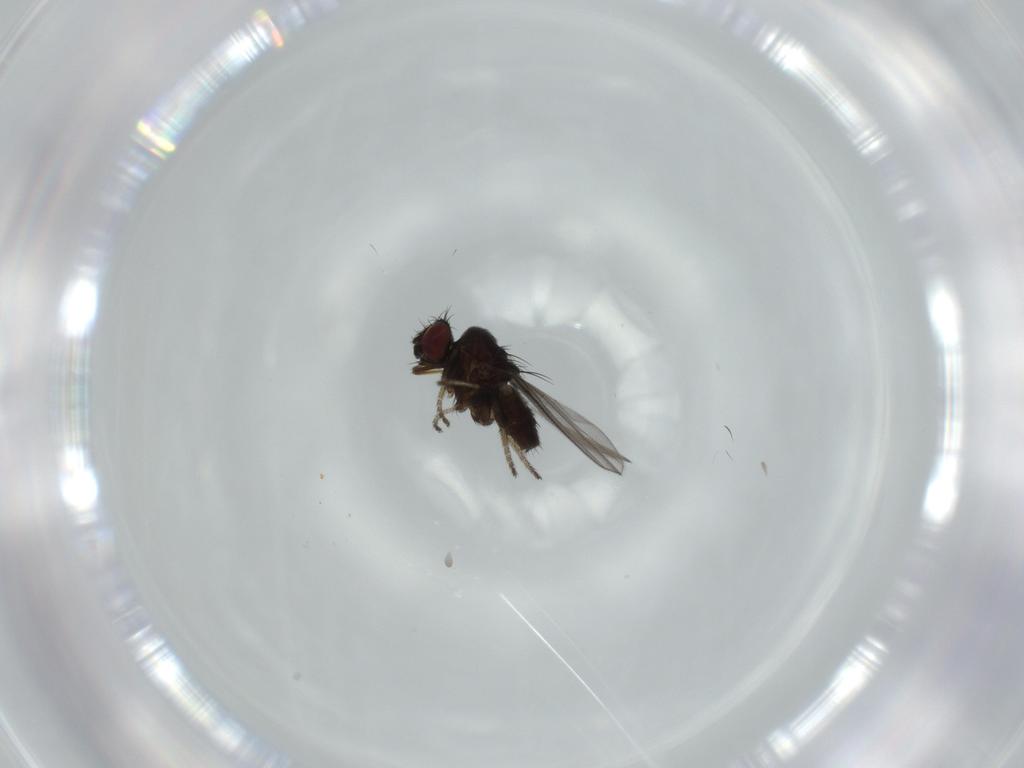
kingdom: Animalia
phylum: Arthropoda
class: Insecta
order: Diptera
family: Milichiidae
